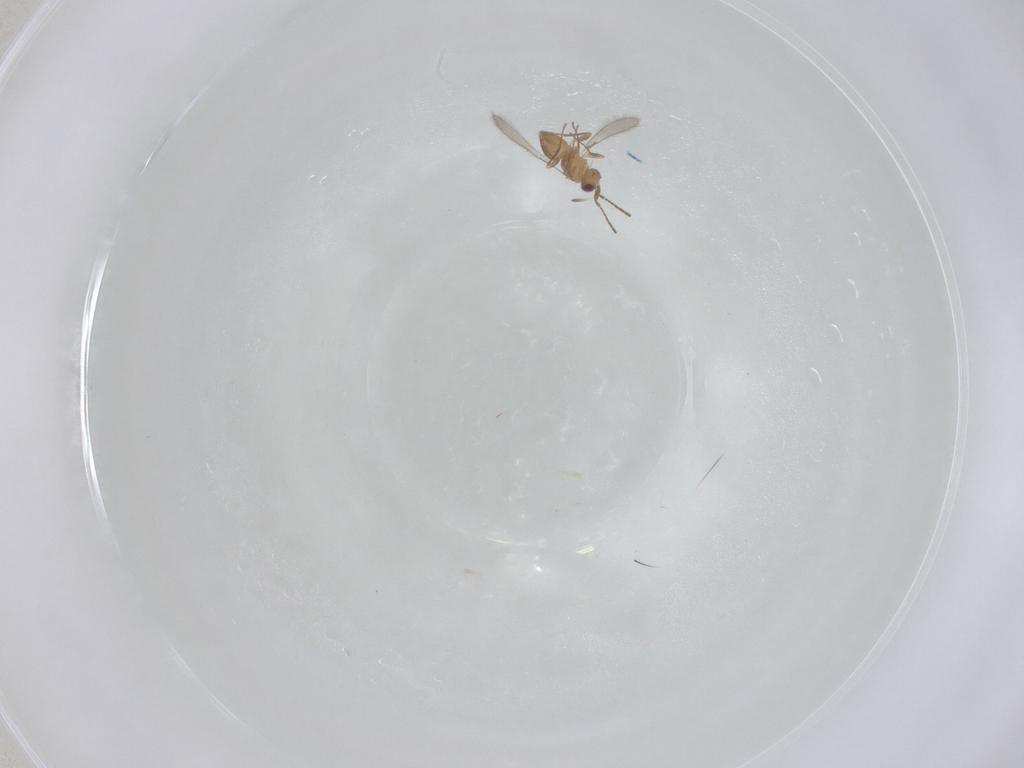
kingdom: Animalia
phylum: Arthropoda
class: Insecta
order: Hymenoptera
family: Mymaridae
